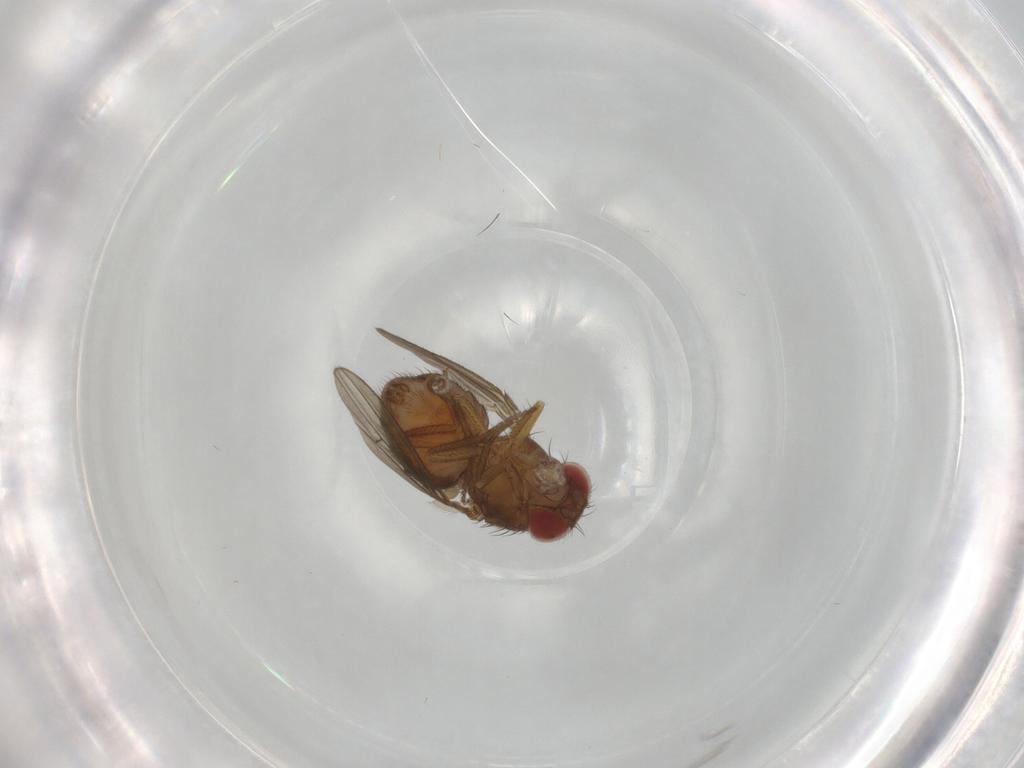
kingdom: Animalia
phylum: Arthropoda
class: Insecta
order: Diptera
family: Drosophilidae
